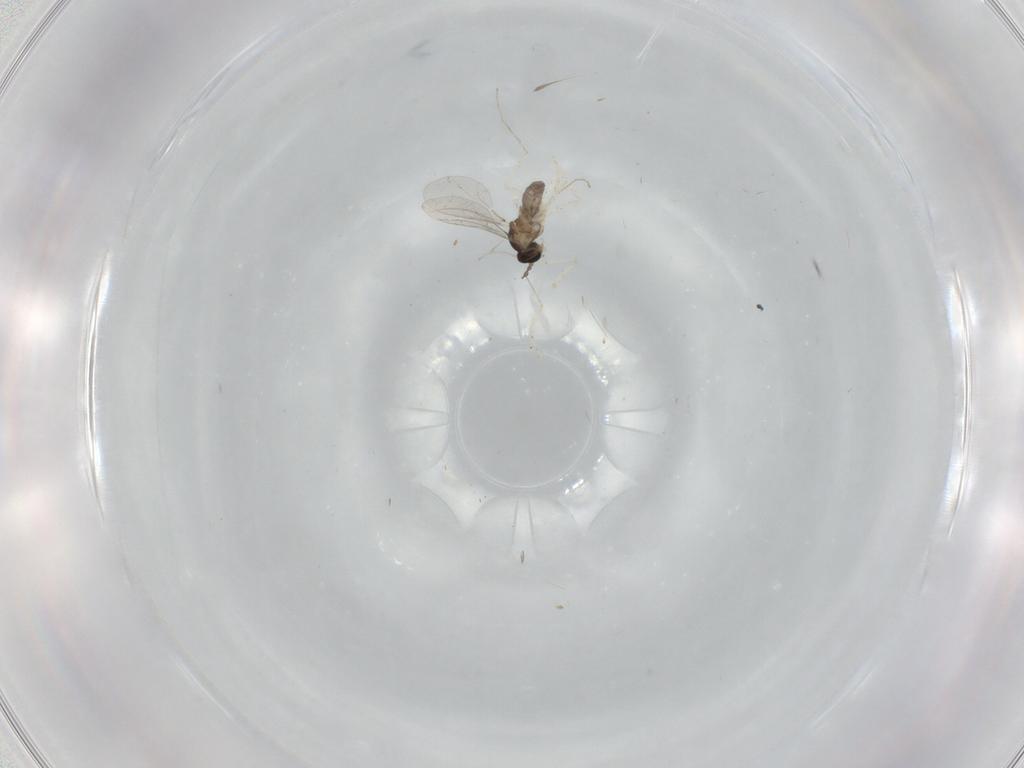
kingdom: Animalia
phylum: Arthropoda
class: Insecta
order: Diptera
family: Cecidomyiidae
